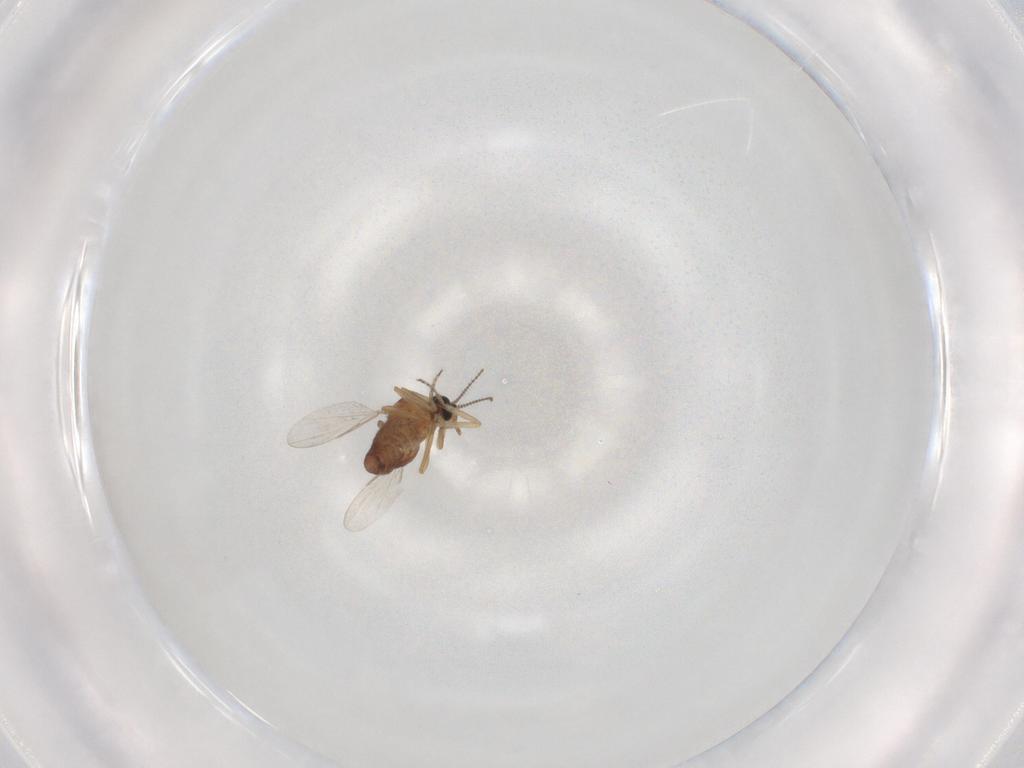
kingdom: Animalia
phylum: Arthropoda
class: Insecta
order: Diptera
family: Ceratopogonidae
